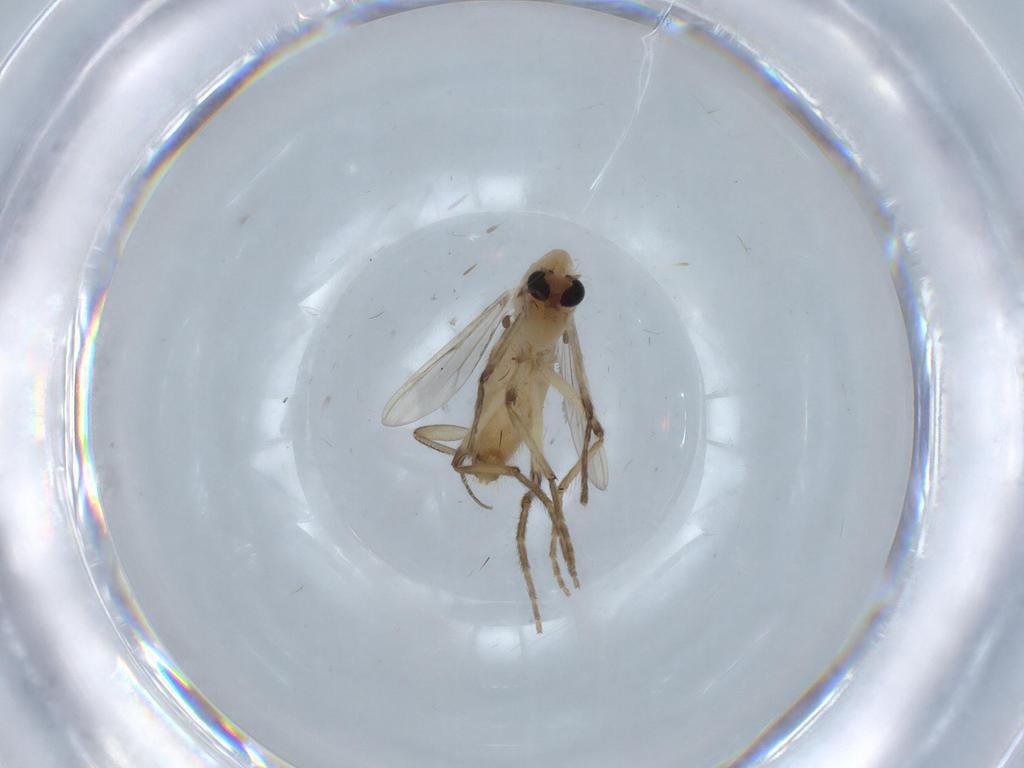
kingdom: Animalia
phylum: Arthropoda
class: Insecta
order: Diptera
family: Chironomidae
